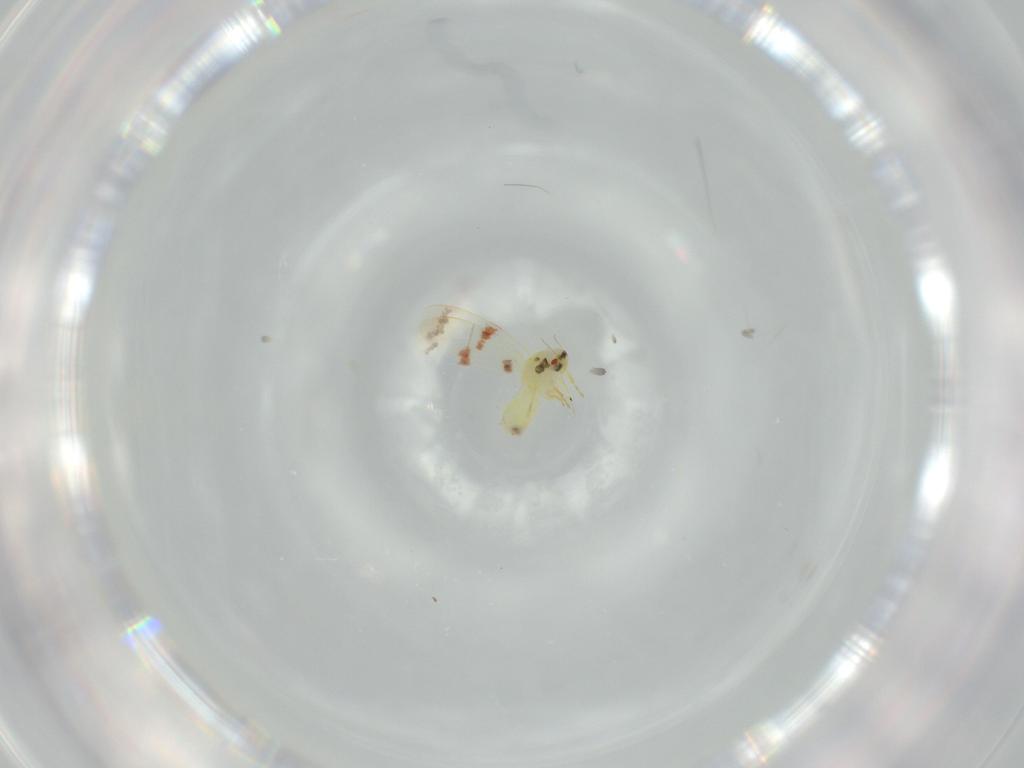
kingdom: Animalia
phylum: Arthropoda
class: Insecta
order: Hemiptera
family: Aleyrodidae
